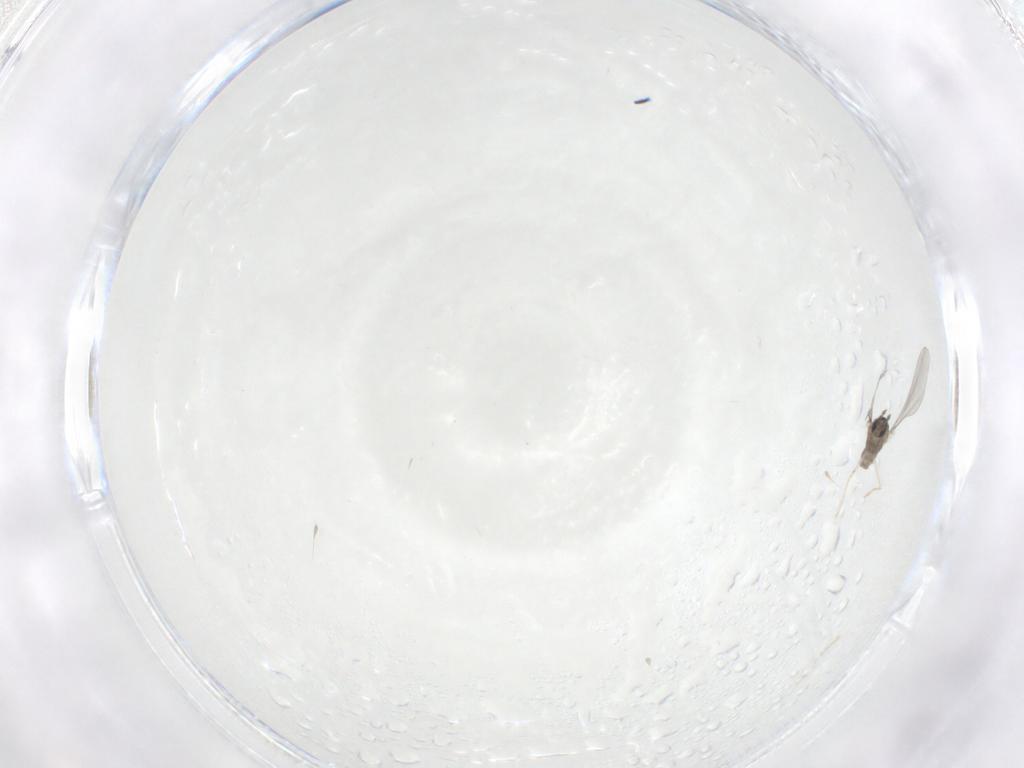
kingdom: Animalia
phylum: Arthropoda
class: Insecta
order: Diptera
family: Cecidomyiidae
